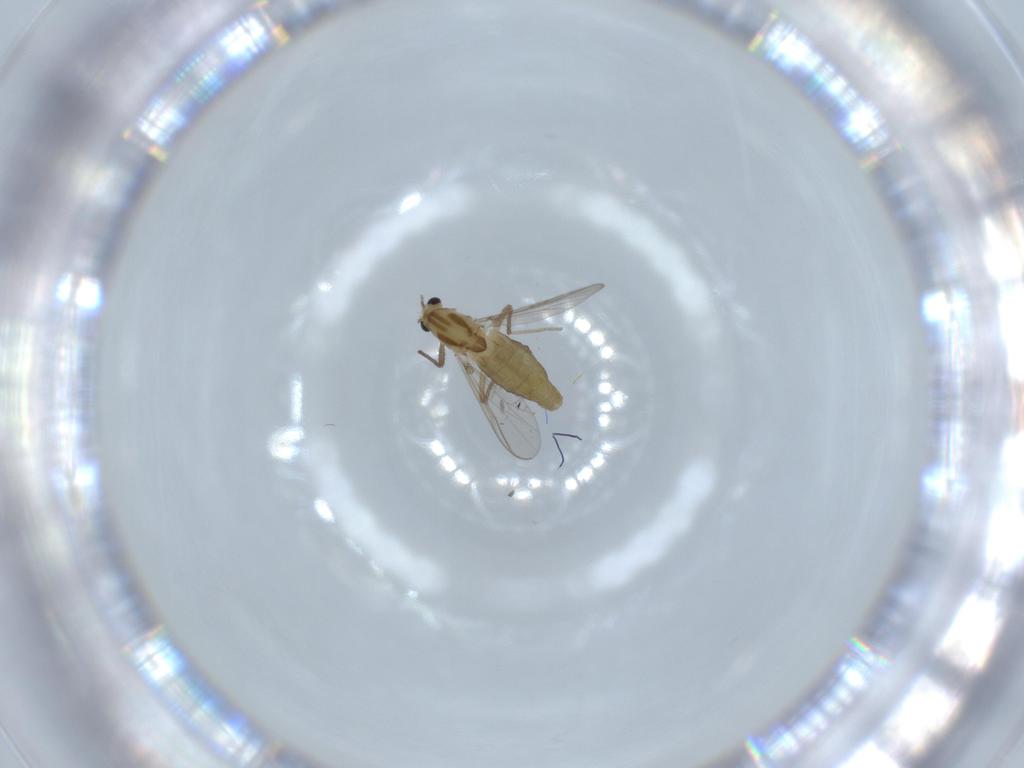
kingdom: Animalia
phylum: Arthropoda
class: Insecta
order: Diptera
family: Chironomidae
